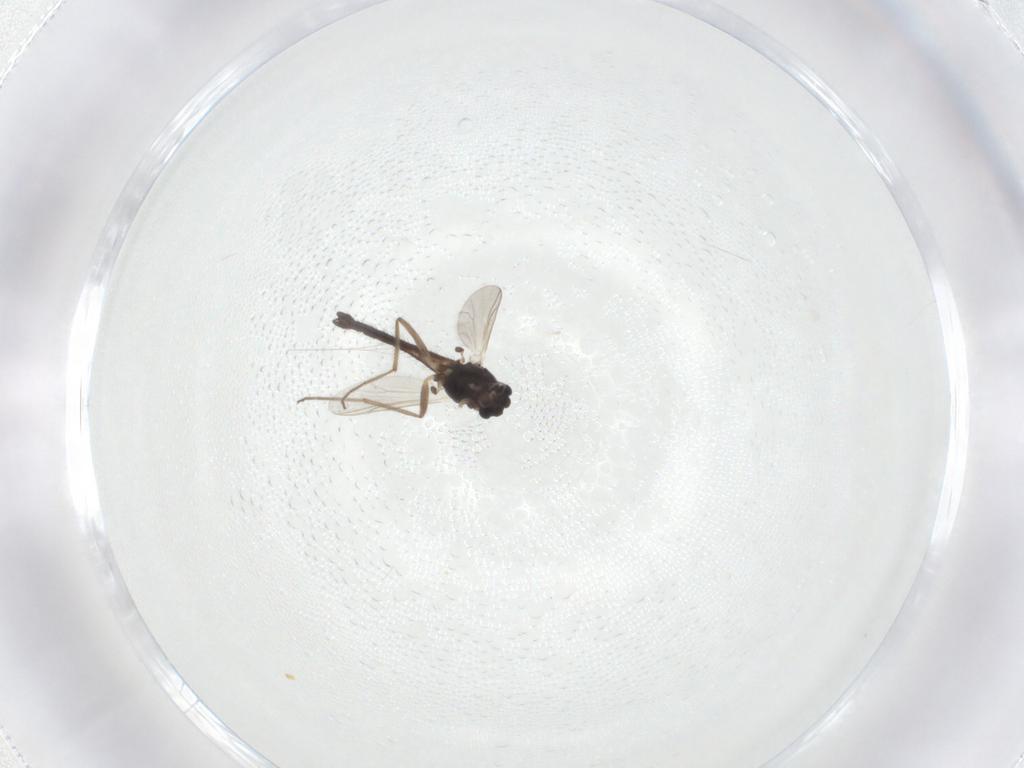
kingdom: Animalia
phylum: Arthropoda
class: Insecta
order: Diptera
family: Chironomidae
